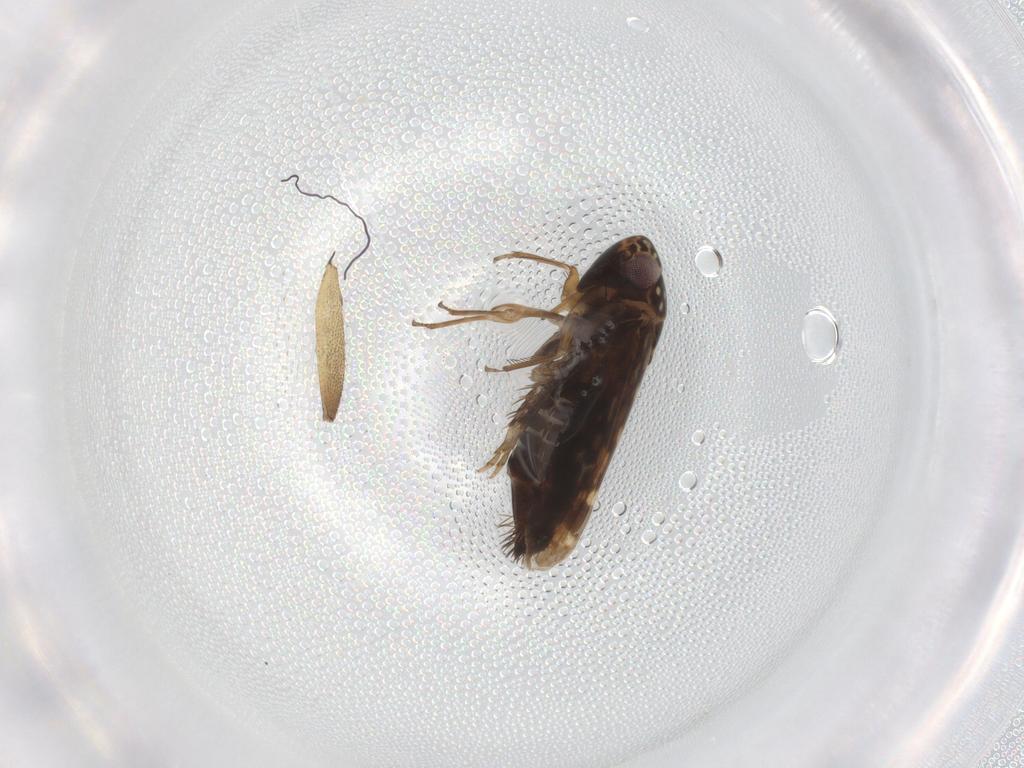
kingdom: Animalia
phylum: Arthropoda
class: Insecta
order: Hemiptera
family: Cicadellidae
